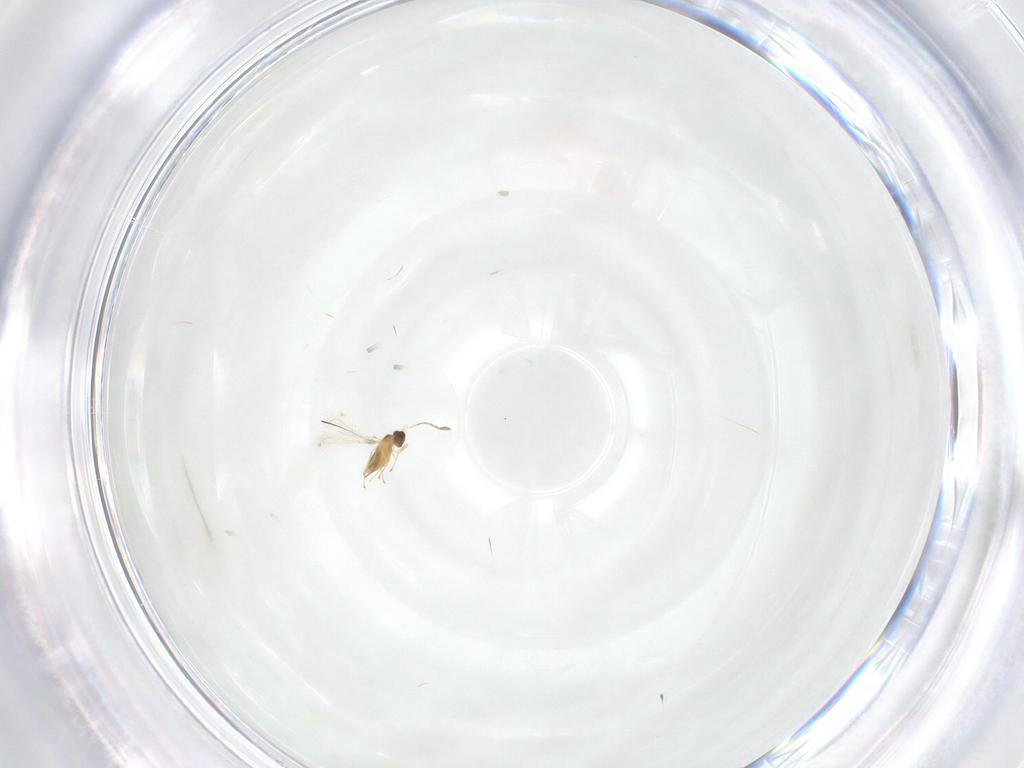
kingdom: Animalia
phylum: Arthropoda
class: Insecta
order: Hymenoptera
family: Mymaridae
